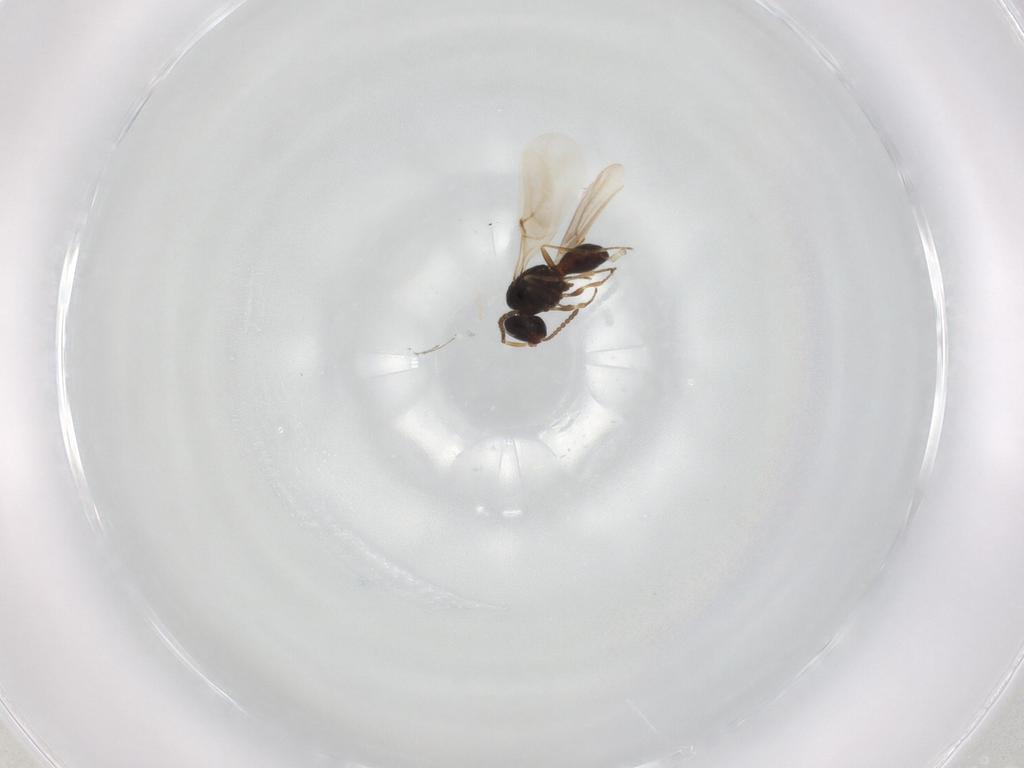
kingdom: Animalia
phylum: Arthropoda
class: Insecta
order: Hymenoptera
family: Scelionidae
